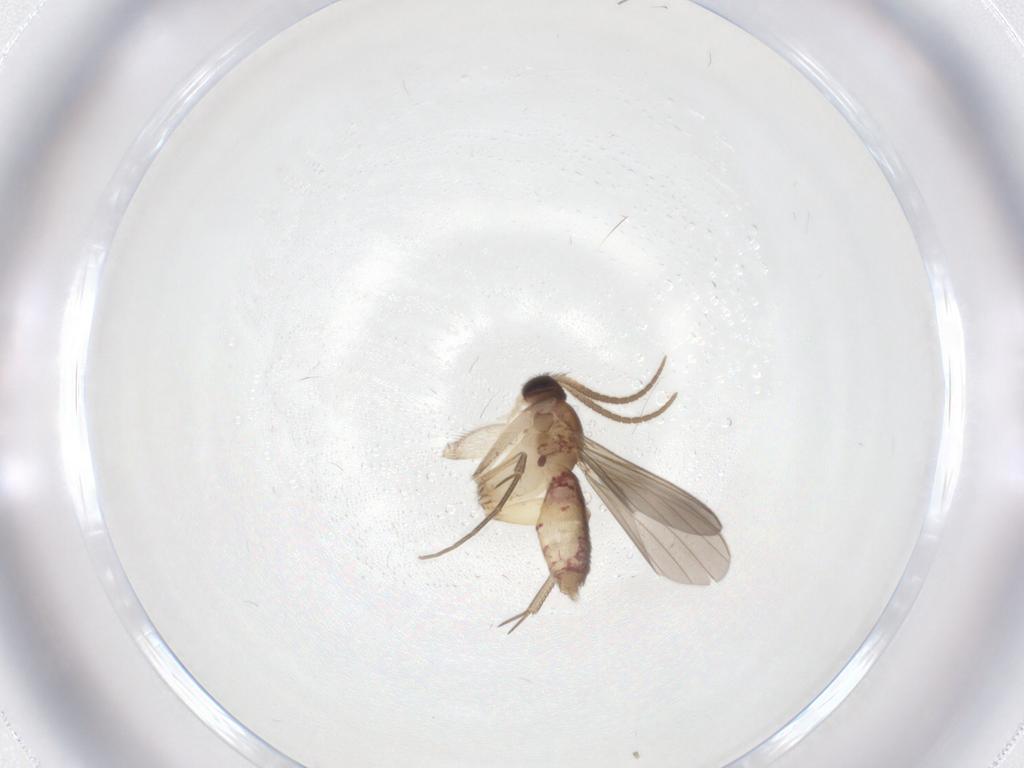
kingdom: Animalia
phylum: Arthropoda
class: Insecta
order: Diptera
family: Mycetophilidae
